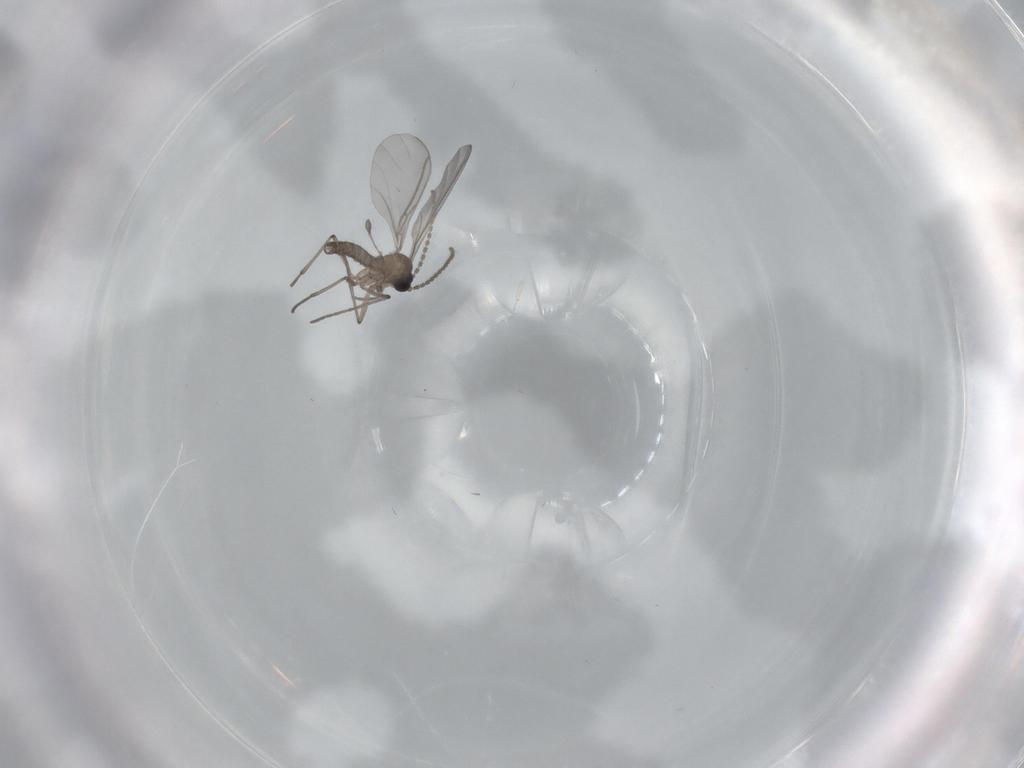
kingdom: Animalia
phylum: Arthropoda
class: Insecta
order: Diptera
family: Sciaridae
